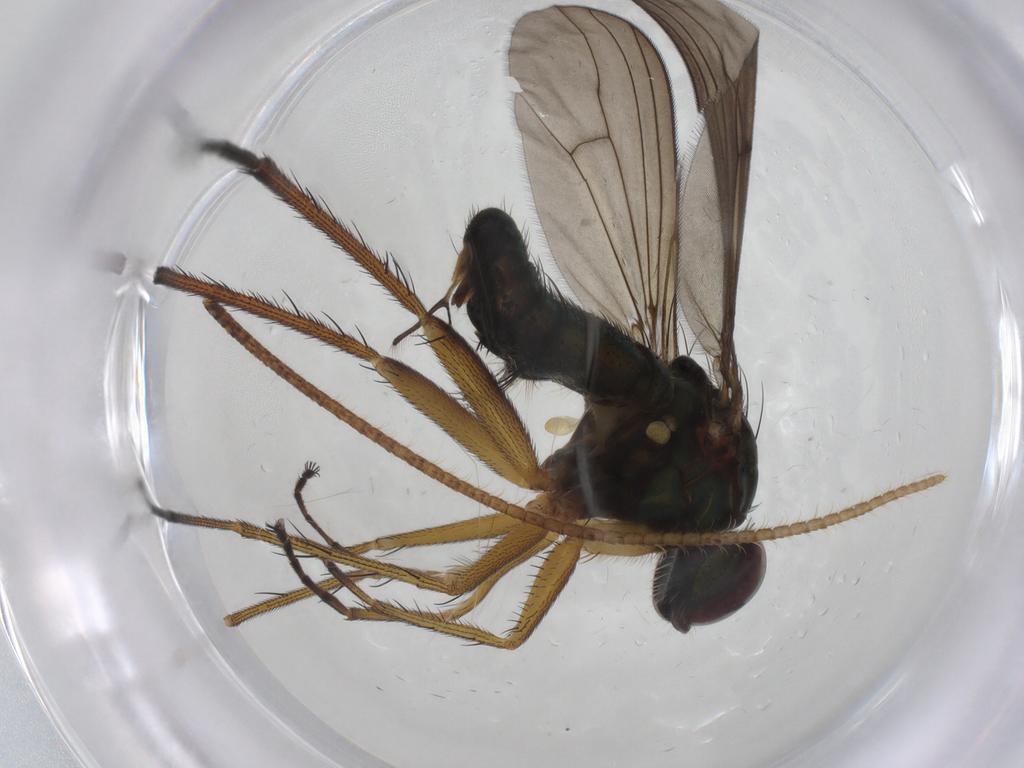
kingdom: Animalia
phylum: Arthropoda
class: Insecta
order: Diptera
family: Dolichopodidae
